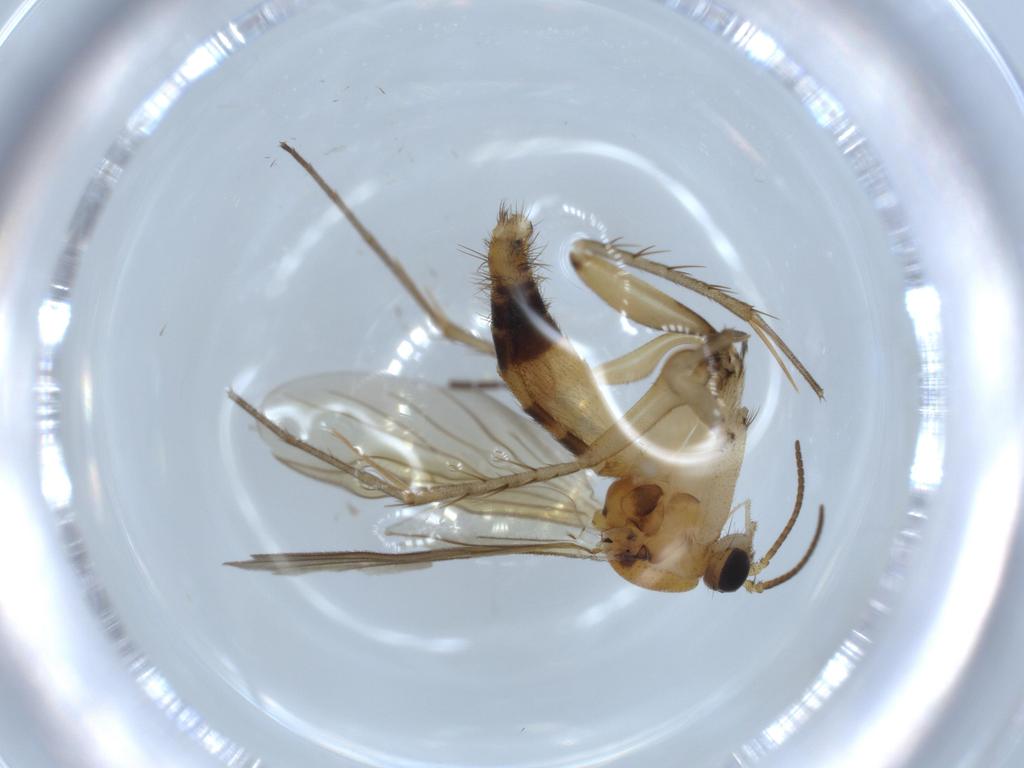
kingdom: Animalia
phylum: Arthropoda
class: Insecta
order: Diptera
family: Mycetophilidae
